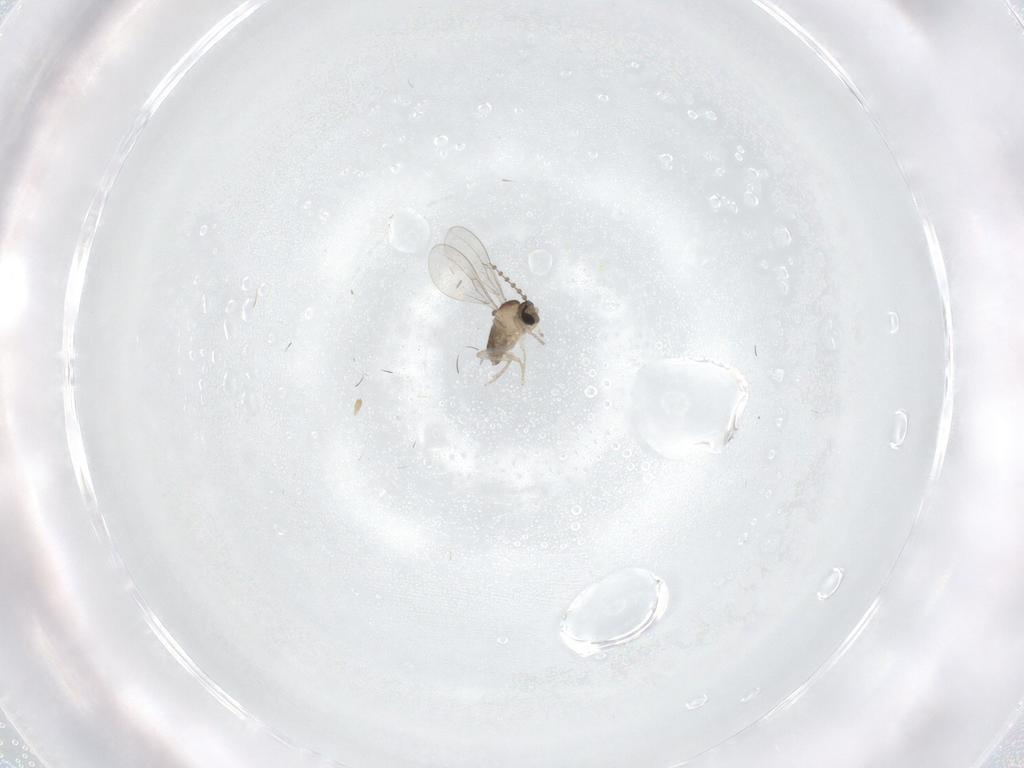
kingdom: Animalia
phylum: Arthropoda
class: Insecta
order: Diptera
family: Cecidomyiidae
